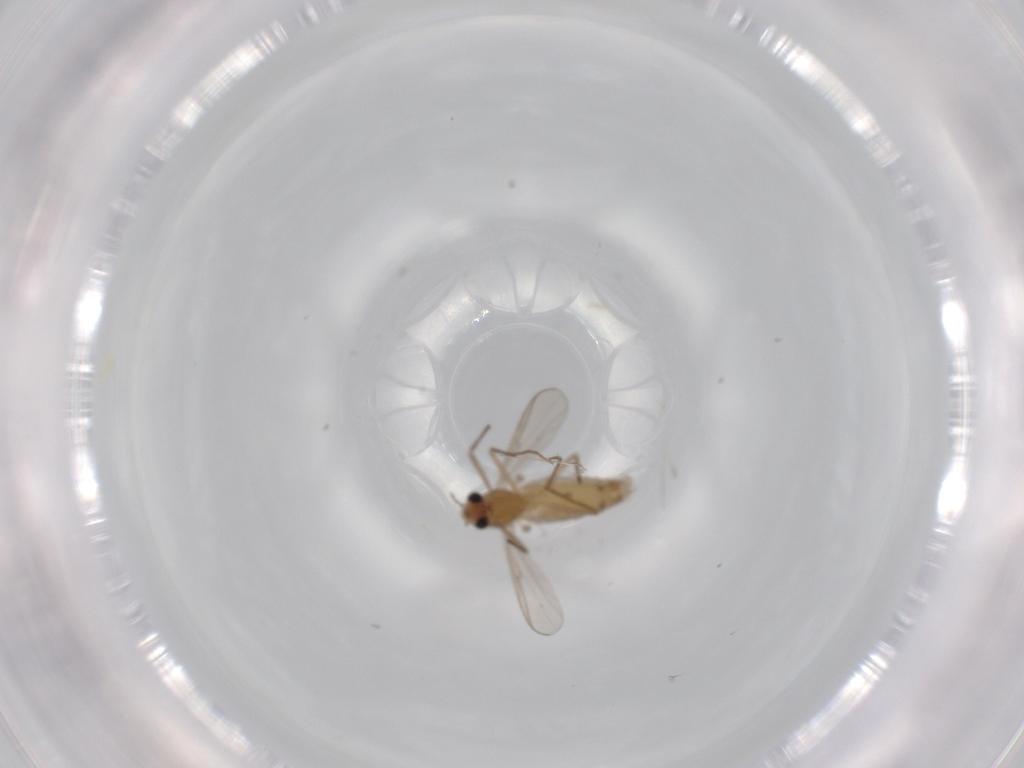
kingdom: Animalia
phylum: Arthropoda
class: Insecta
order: Diptera
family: Chironomidae
